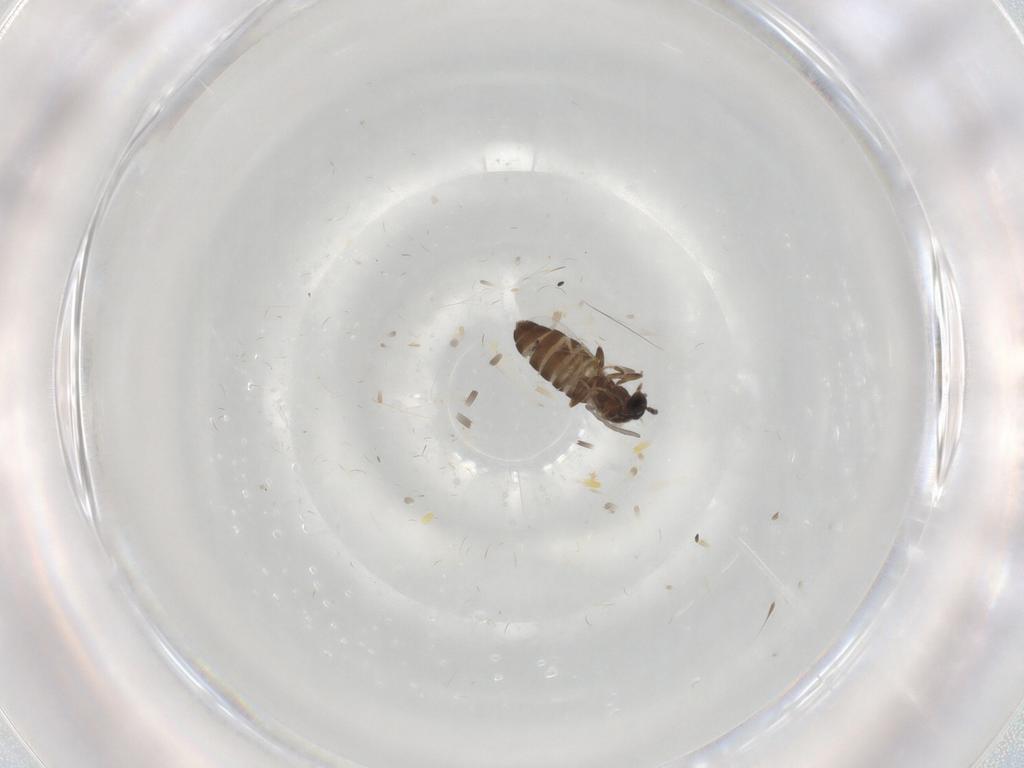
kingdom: Animalia
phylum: Arthropoda
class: Insecta
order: Diptera
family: Scatopsidae
